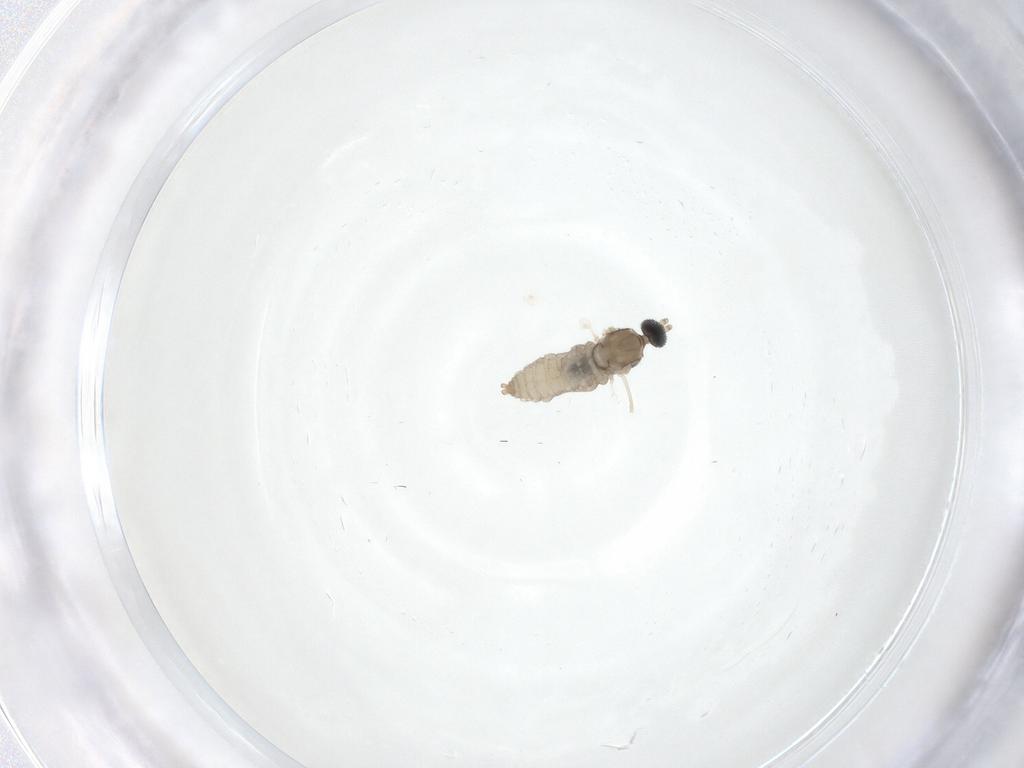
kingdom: Animalia
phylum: Arthropoda
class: Insecta
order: Diptera
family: Cecidomyiidae
